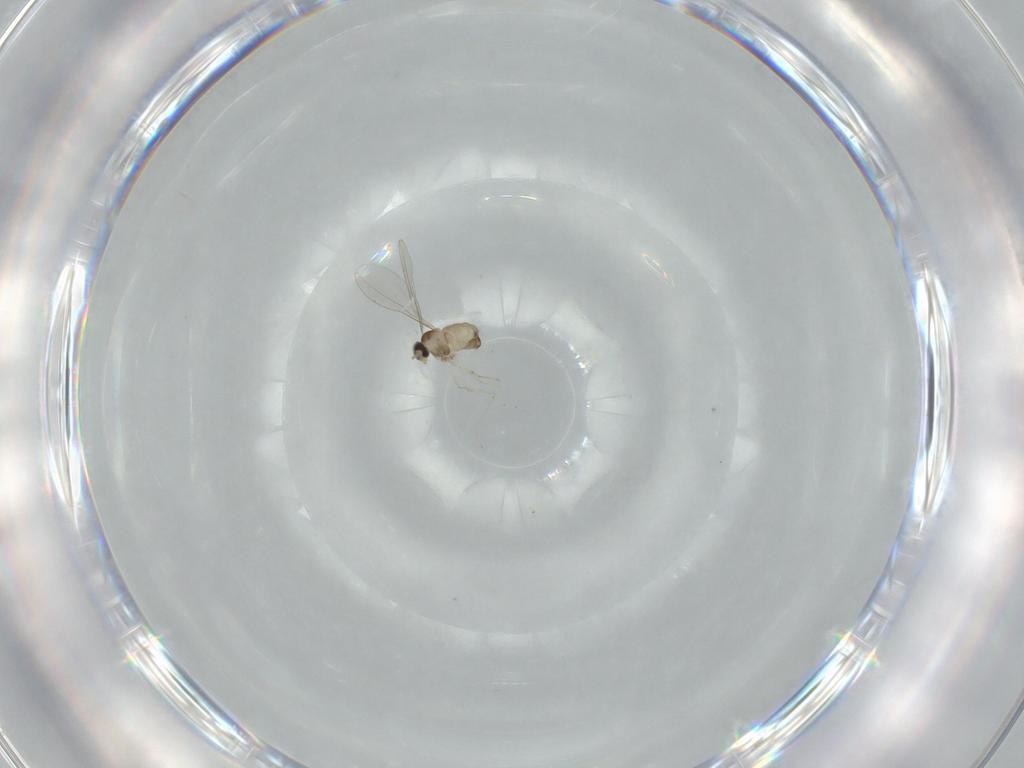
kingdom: Animalia
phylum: Arthropoda
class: Insecta
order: Diptera
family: Cecidomyiidae
